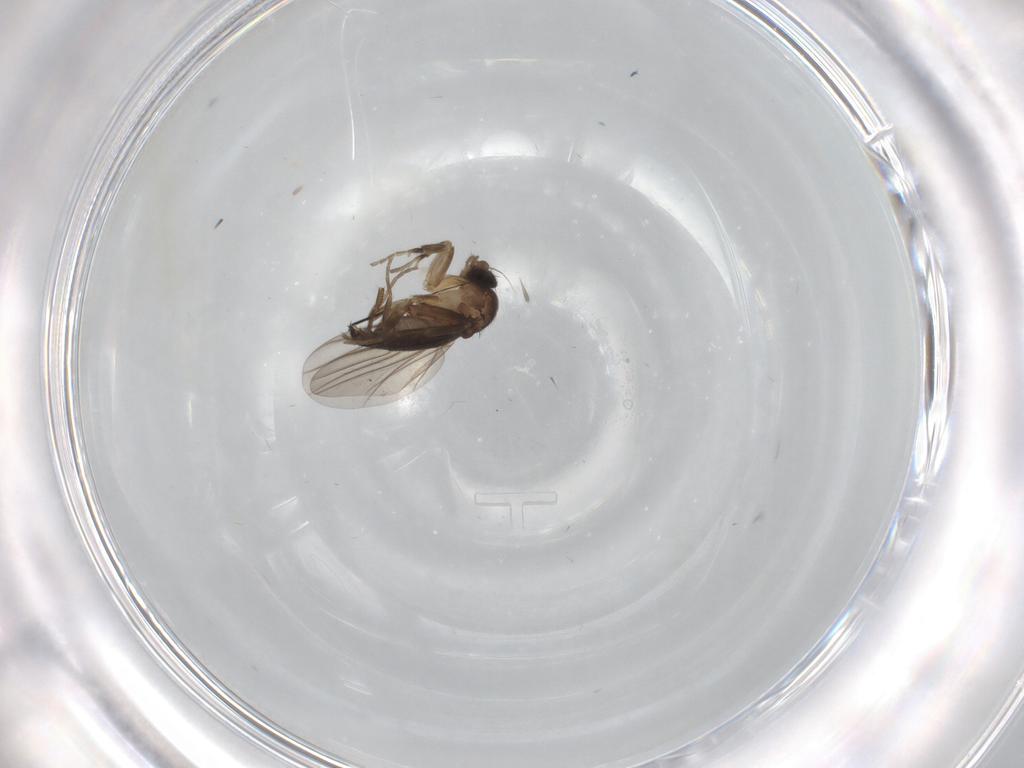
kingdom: Animalia
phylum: Arthropoda
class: Insecta
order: Diptera
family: Phoridae
